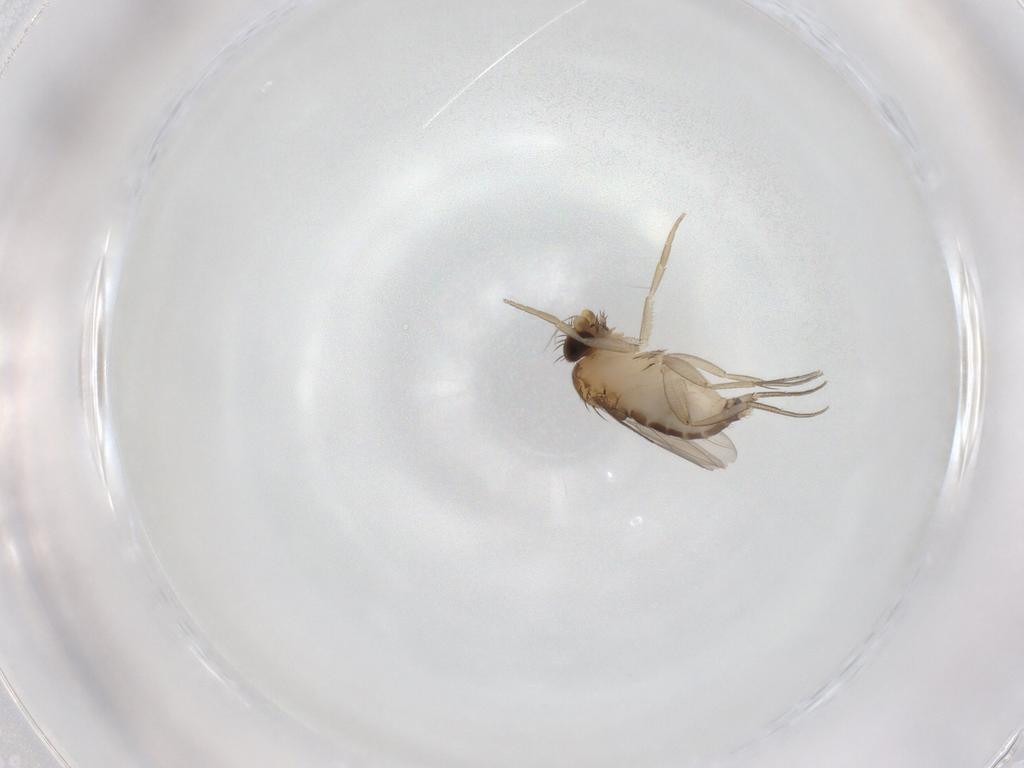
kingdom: Animalia
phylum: Arthropoda
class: Insecta
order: Diptera
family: Phoridae
